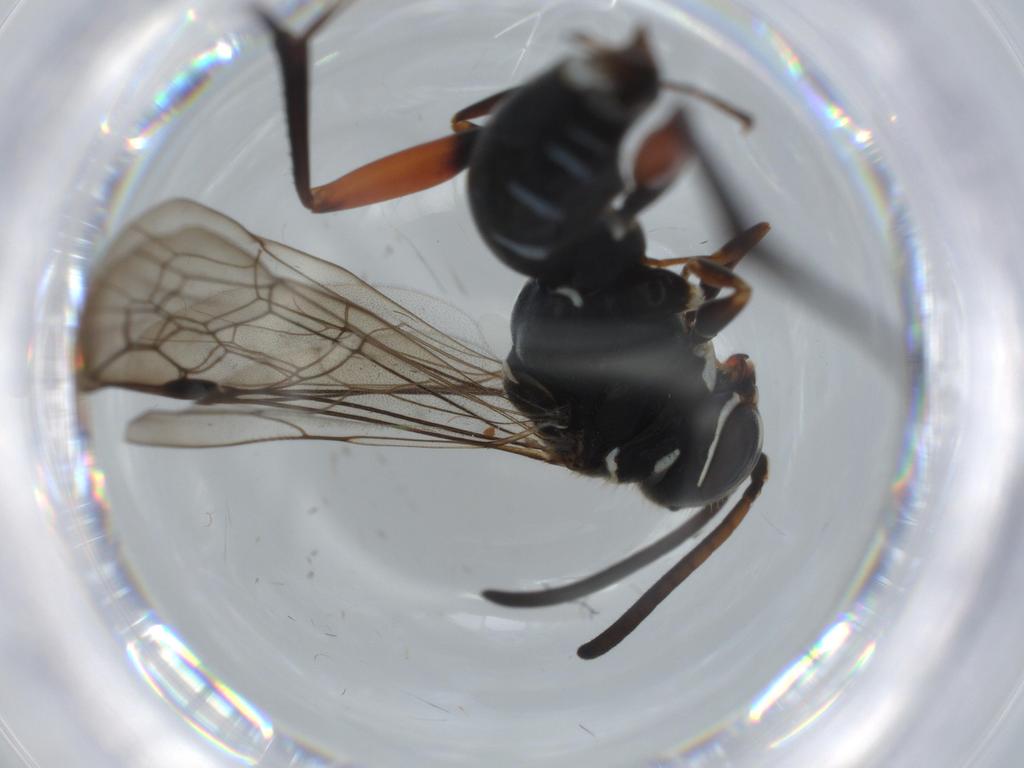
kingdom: Animalia
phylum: Arthropoda
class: Insecta
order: Hymenoptera
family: Pompilidae
